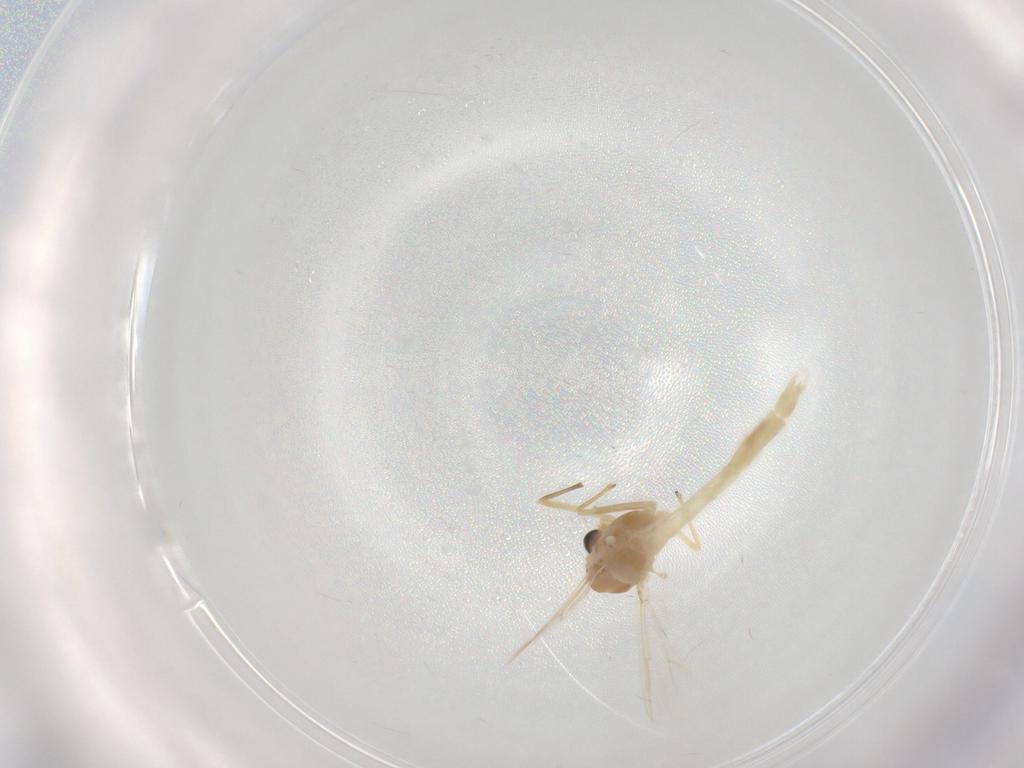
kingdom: Animalia
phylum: Arthropoda
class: Insecta
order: Diptera
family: Chironomidae
